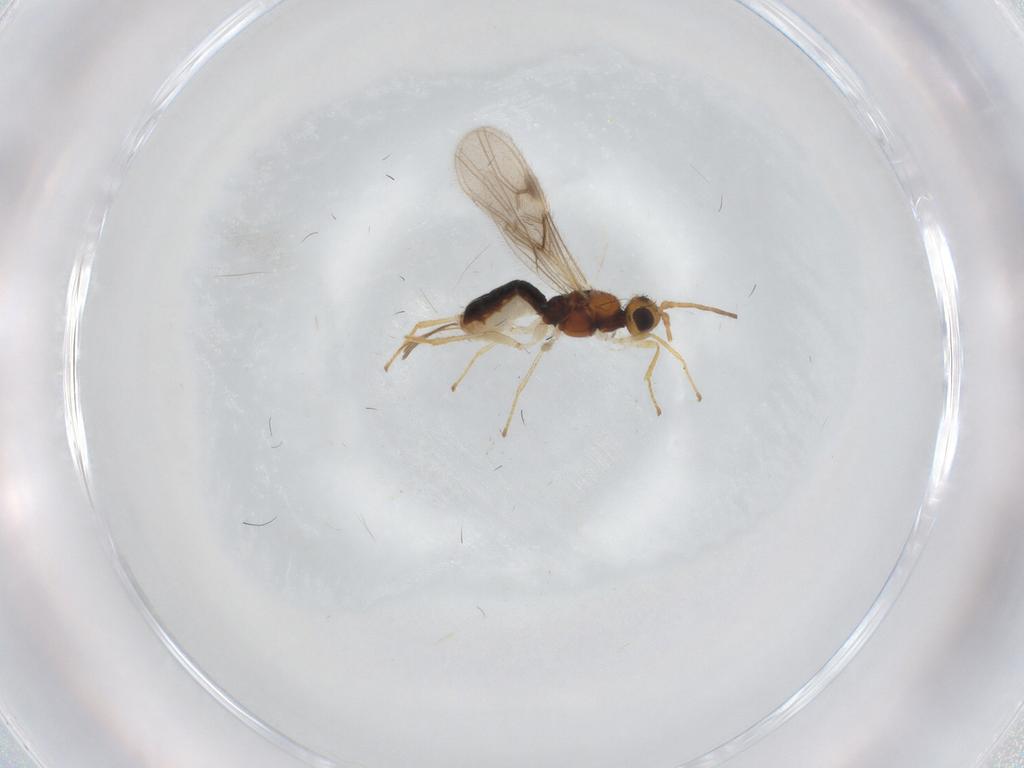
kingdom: Animalia
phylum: Arthropoda
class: Insecta
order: Hymenoptera
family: Braconidae
